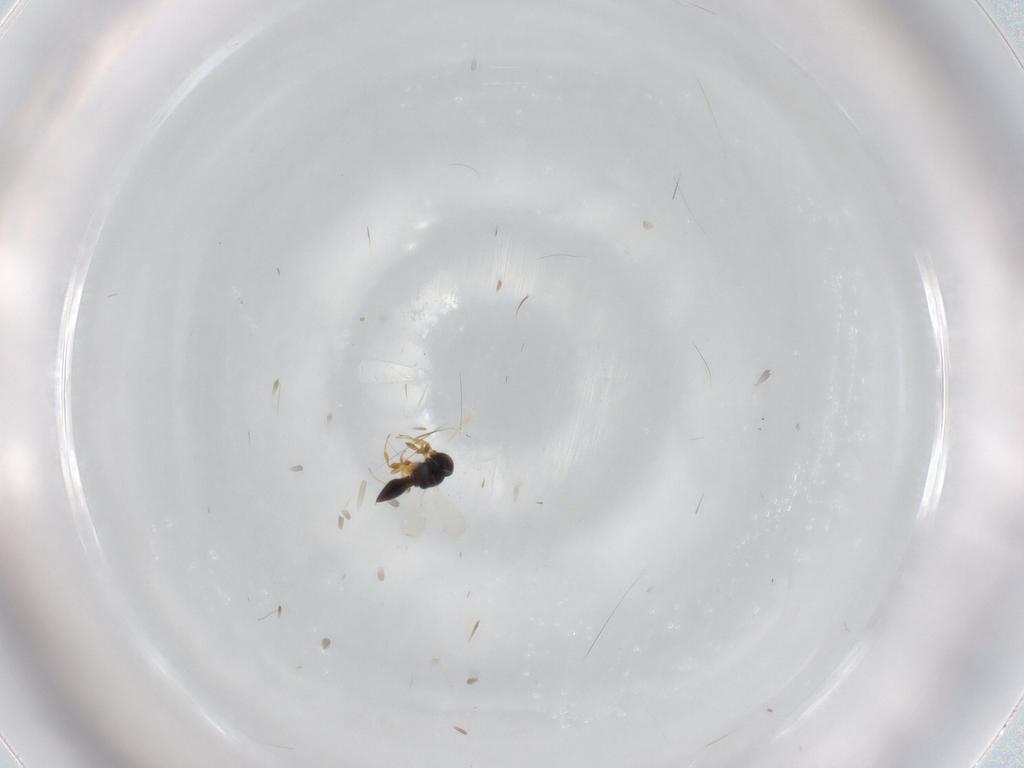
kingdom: Animalia
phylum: Arthropoda
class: Insecta
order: Hymenoptera
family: Platygastridae
